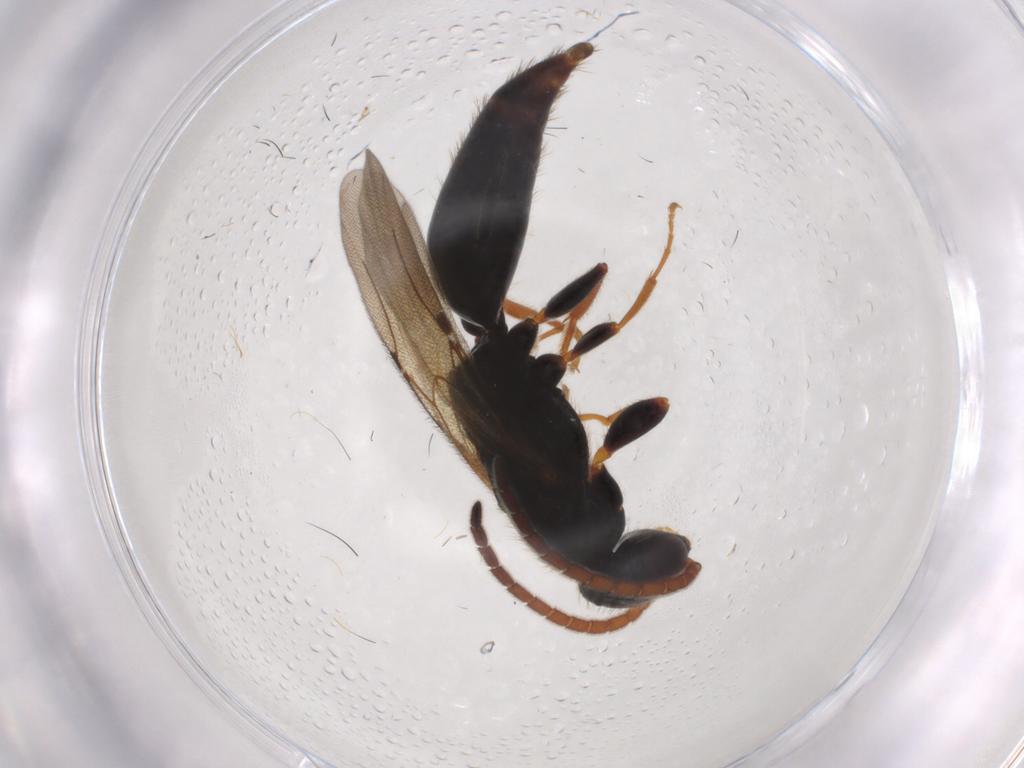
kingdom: Animalia
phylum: Arthropoda
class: Insecta
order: Hymenoptera
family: Bethylidae
